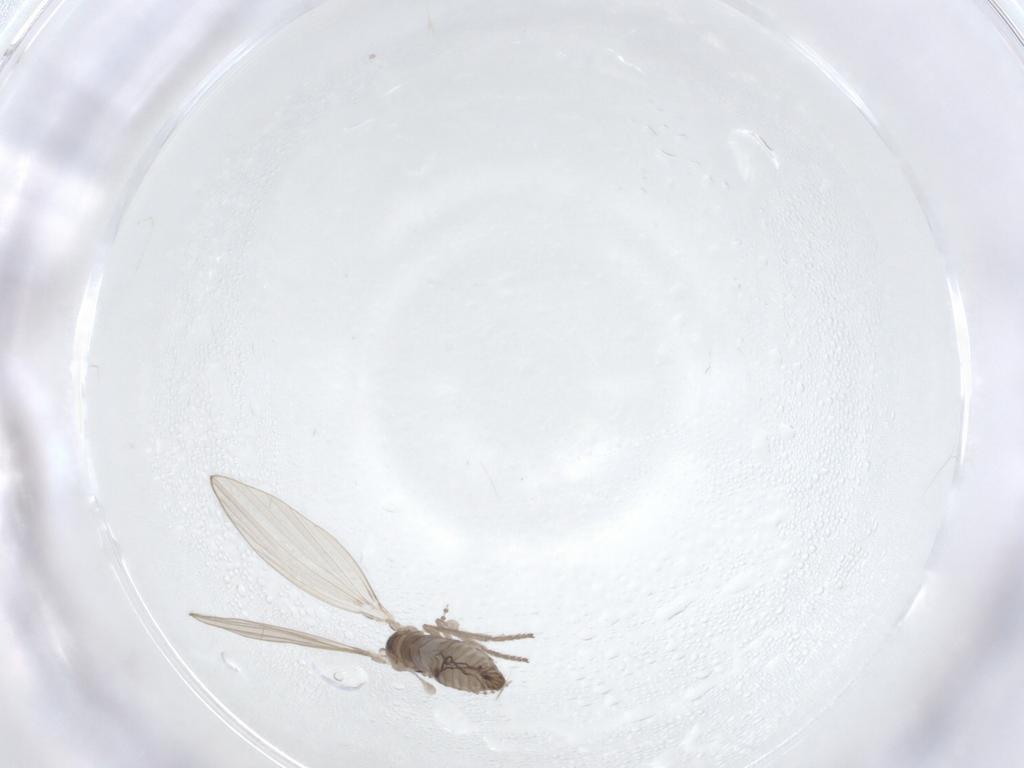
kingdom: Animalia
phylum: Arthropoda
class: Insecta
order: Diptera
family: Psychodidae
